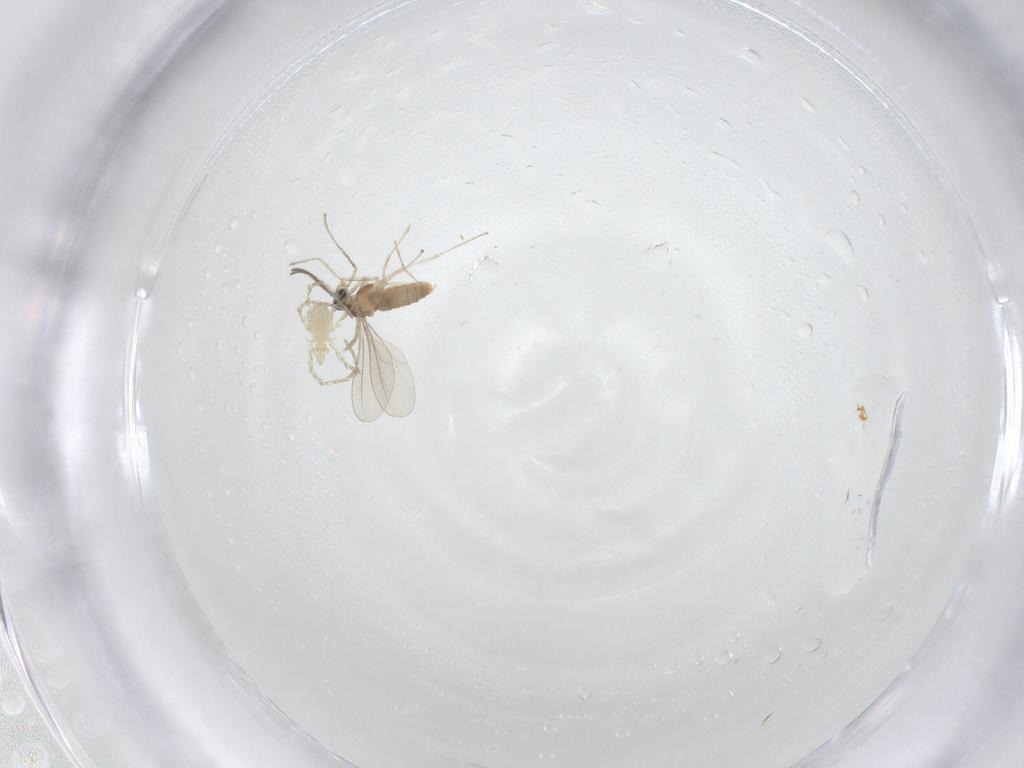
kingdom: Animalia
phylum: Arthropoda
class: Insecta
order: Diptera
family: Cecidomyiidae
